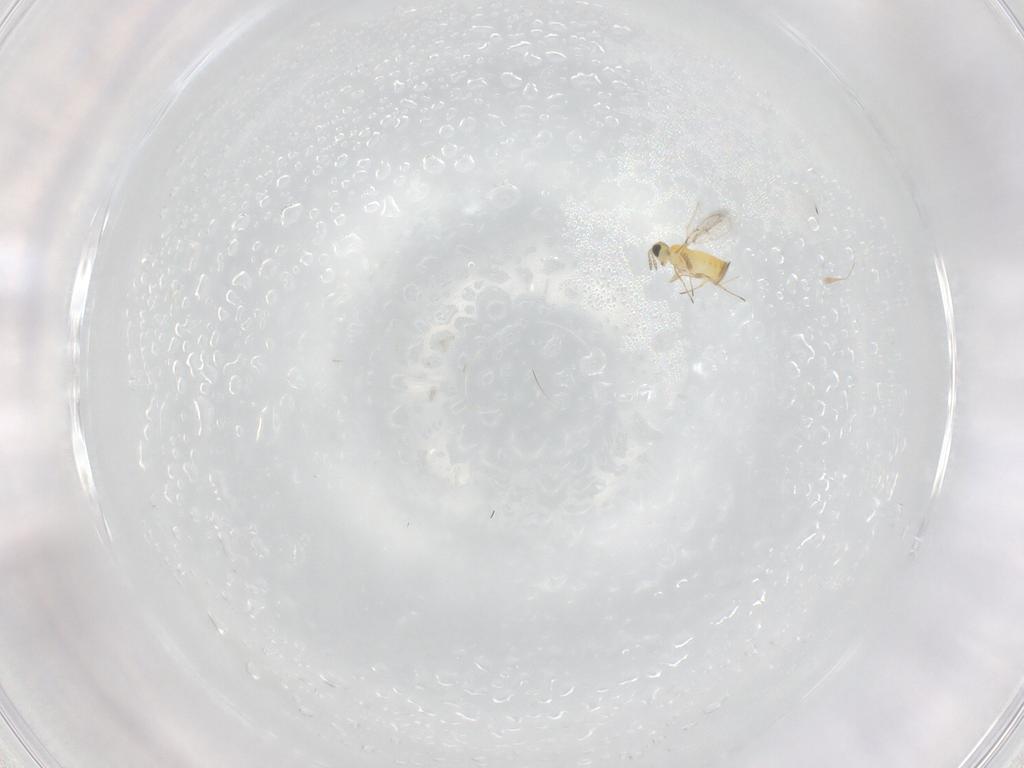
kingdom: Animalia
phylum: Arthropoda
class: Insecta
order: Hymenoptera
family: Trichogrammatidae
